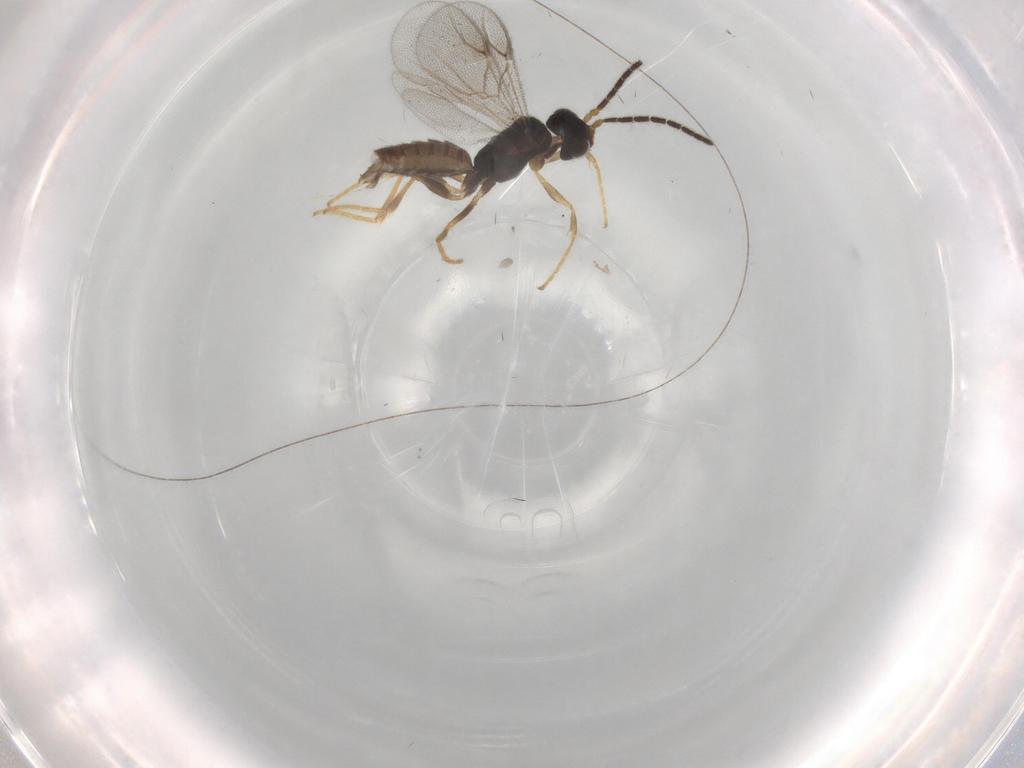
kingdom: Animalia
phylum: Arthropoda
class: Insecta
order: Hymenoptera
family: Dryinidae
